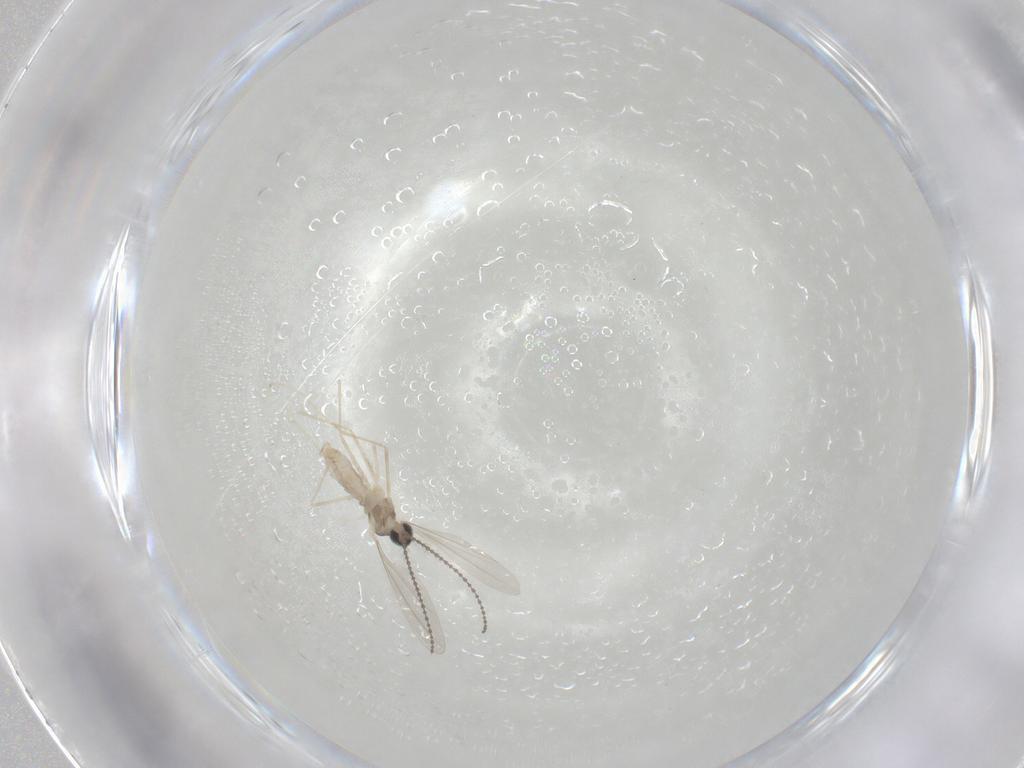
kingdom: Animalia
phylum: Arthropoda
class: Insecta
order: Diptera
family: Cecidomyiidae
